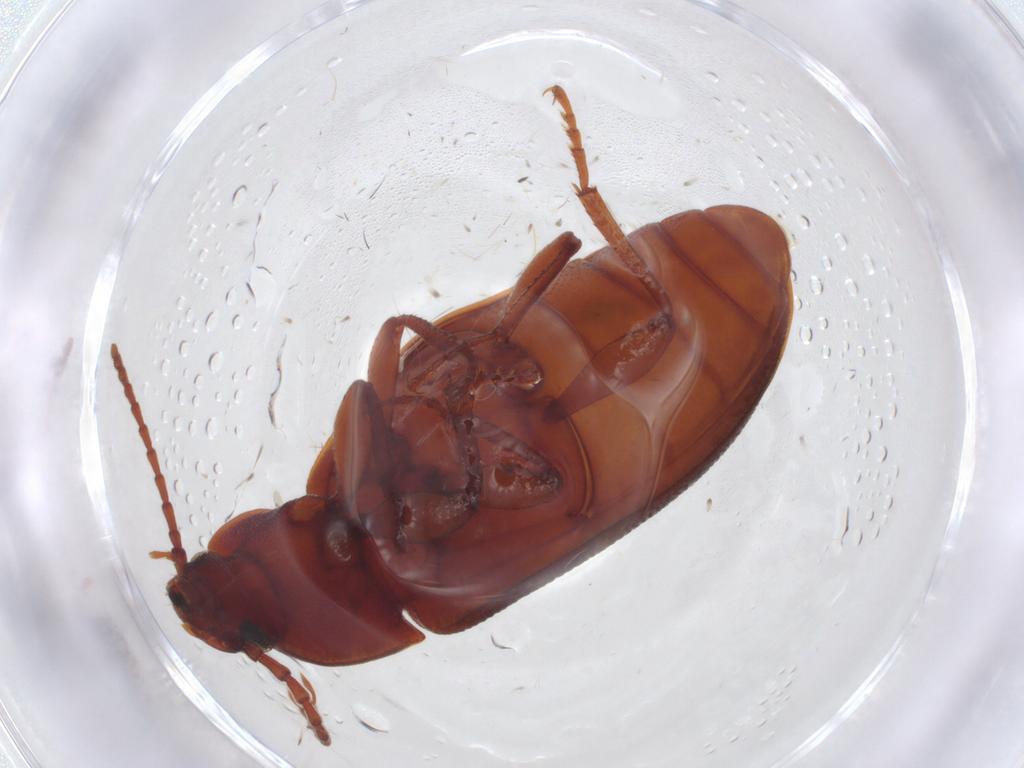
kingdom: Animalia
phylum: Arthropoda
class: Insecta
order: Coleoptera
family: Tenebrionidae
